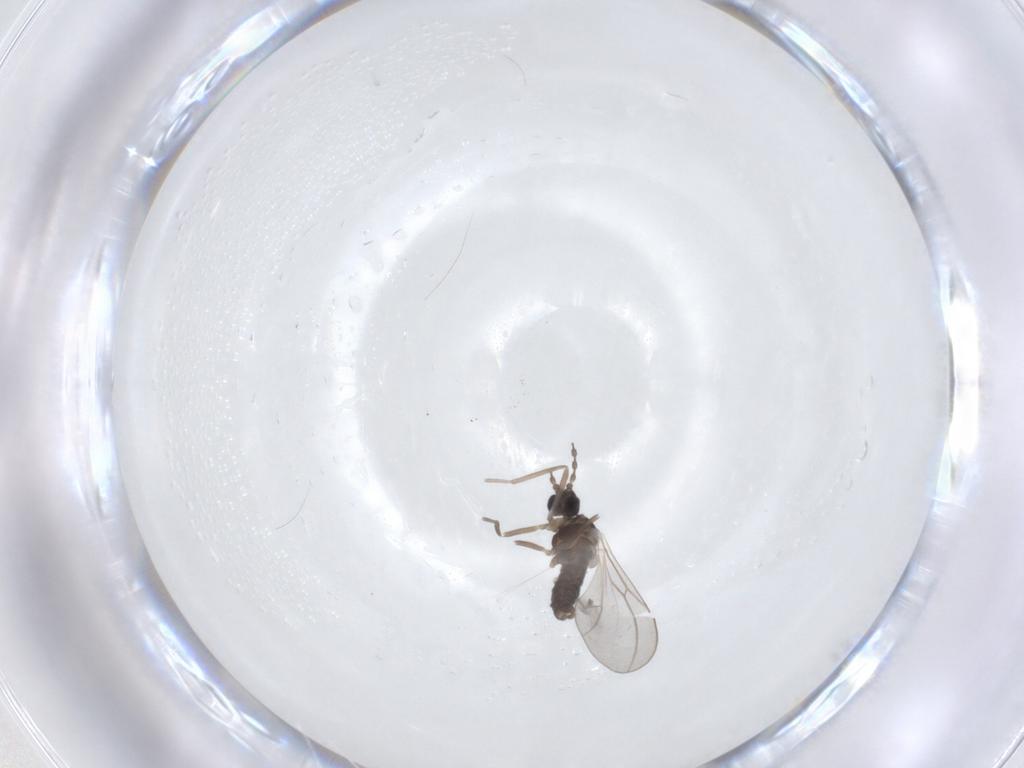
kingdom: Animalia
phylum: Arthropoda
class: Insecta
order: Diptera
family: Cecidomyiidae
